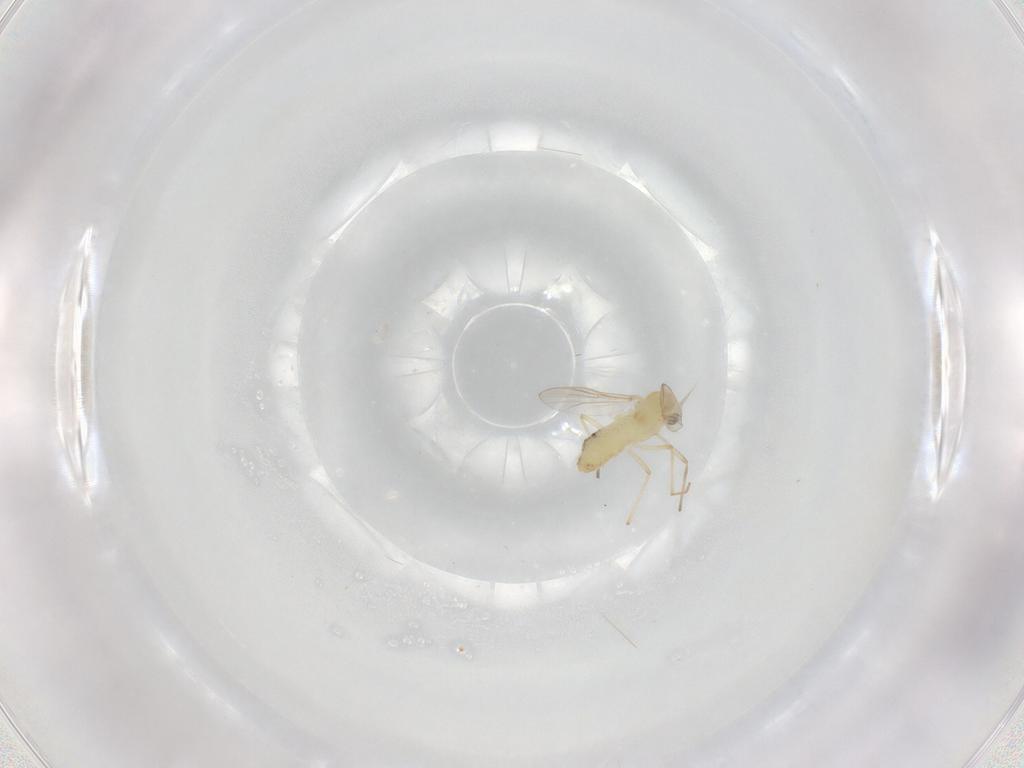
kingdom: Animalia
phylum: Arthropoda
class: Insecta
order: Diptera
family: Chironomidae
